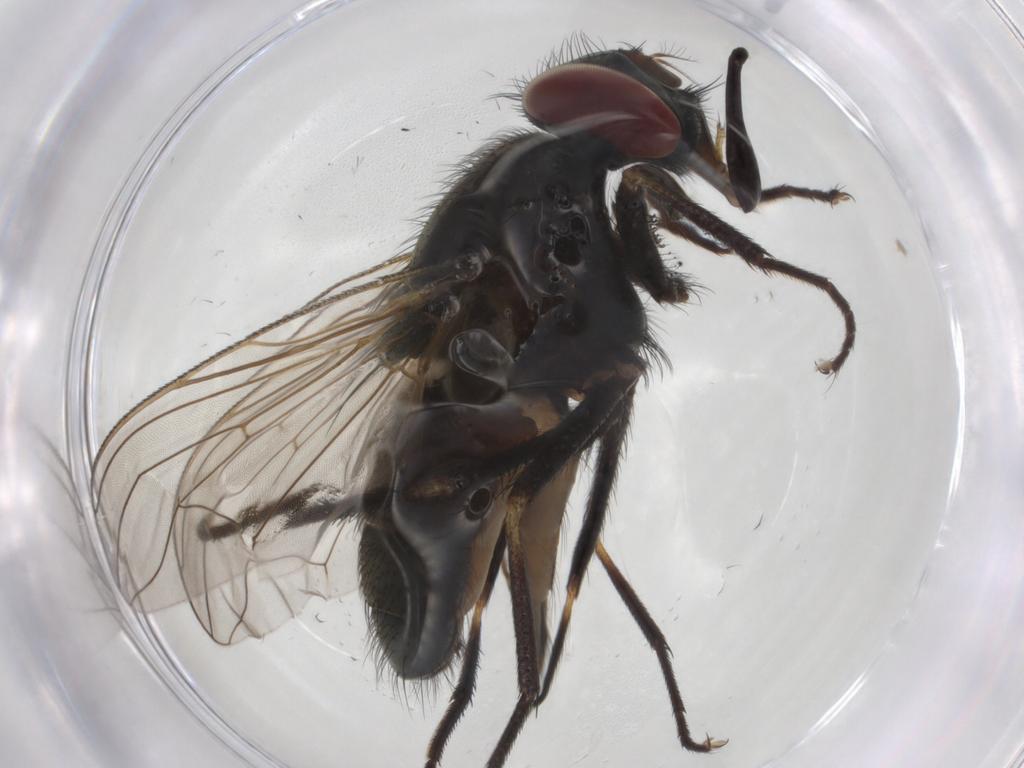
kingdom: Animalia
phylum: Arthropoda
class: Insecta
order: Diptera
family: Muscidae
